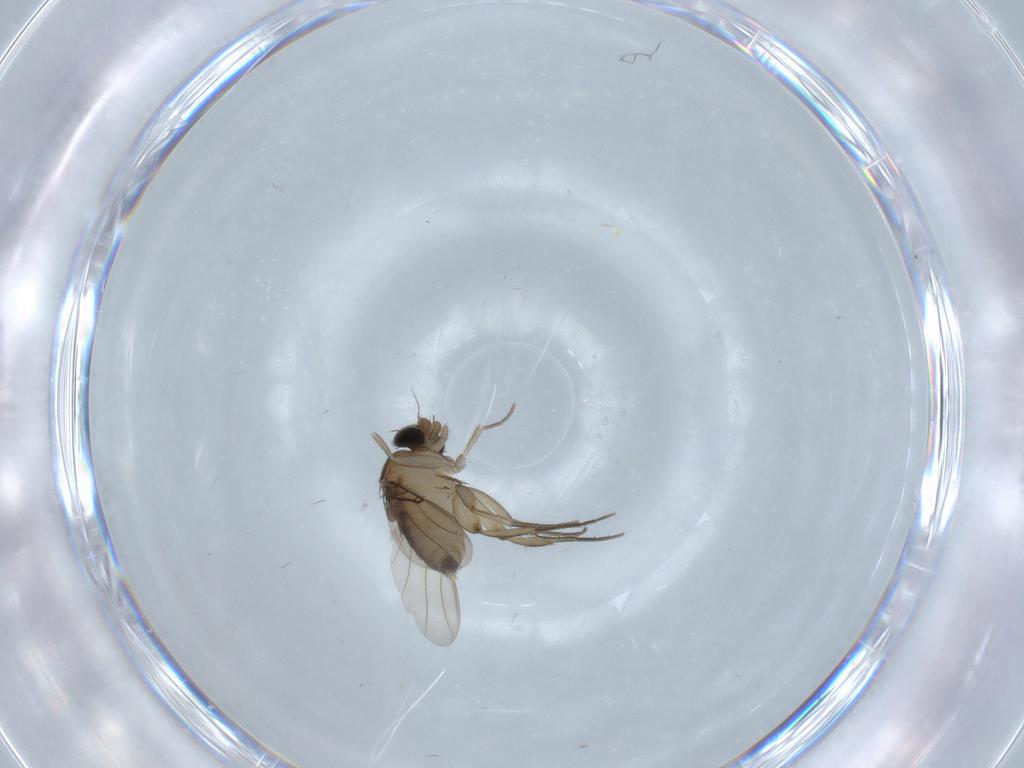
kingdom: Animalia
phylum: Arthropoda
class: Insecta
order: Diptera
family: Phoridae
